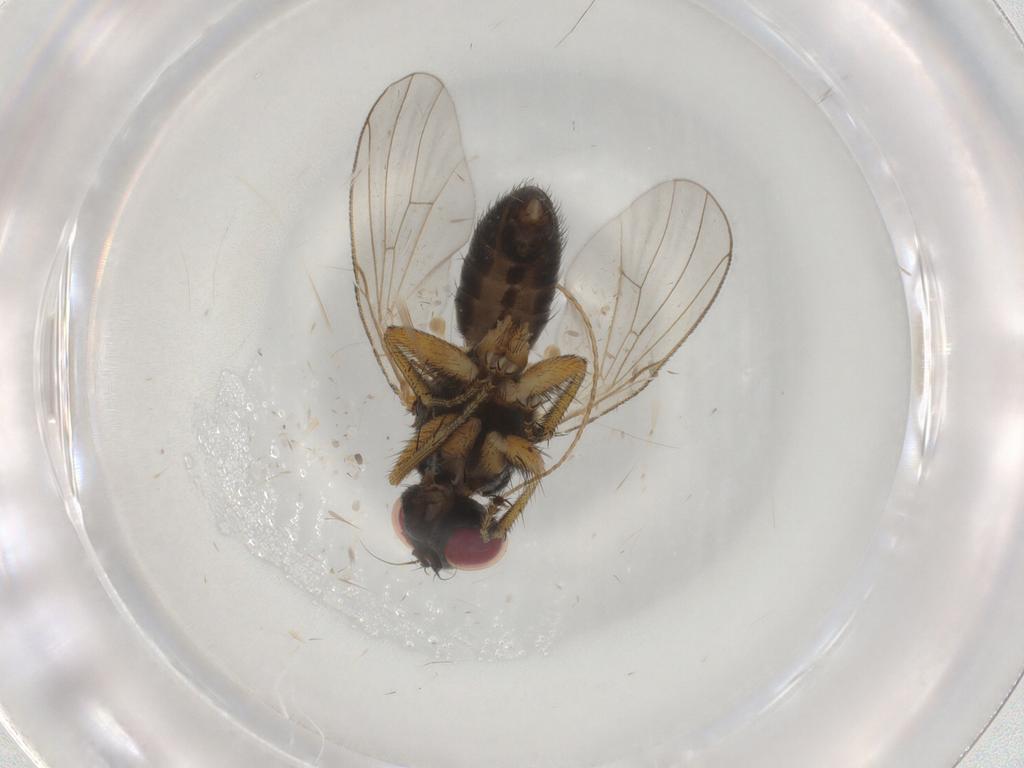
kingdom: Animalia
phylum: Arthropoda
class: Insecta
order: Diptera
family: Muscidae
